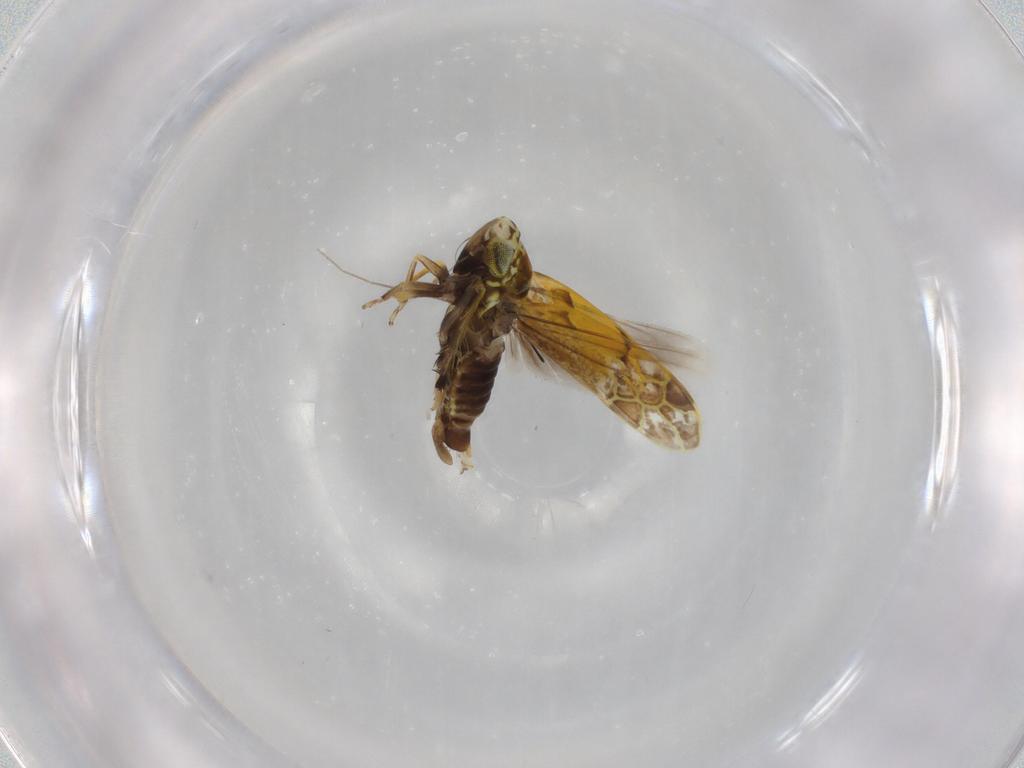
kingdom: Animalia
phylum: Arthropoda
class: Insecta
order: Hemiptera
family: Cicadellidae
